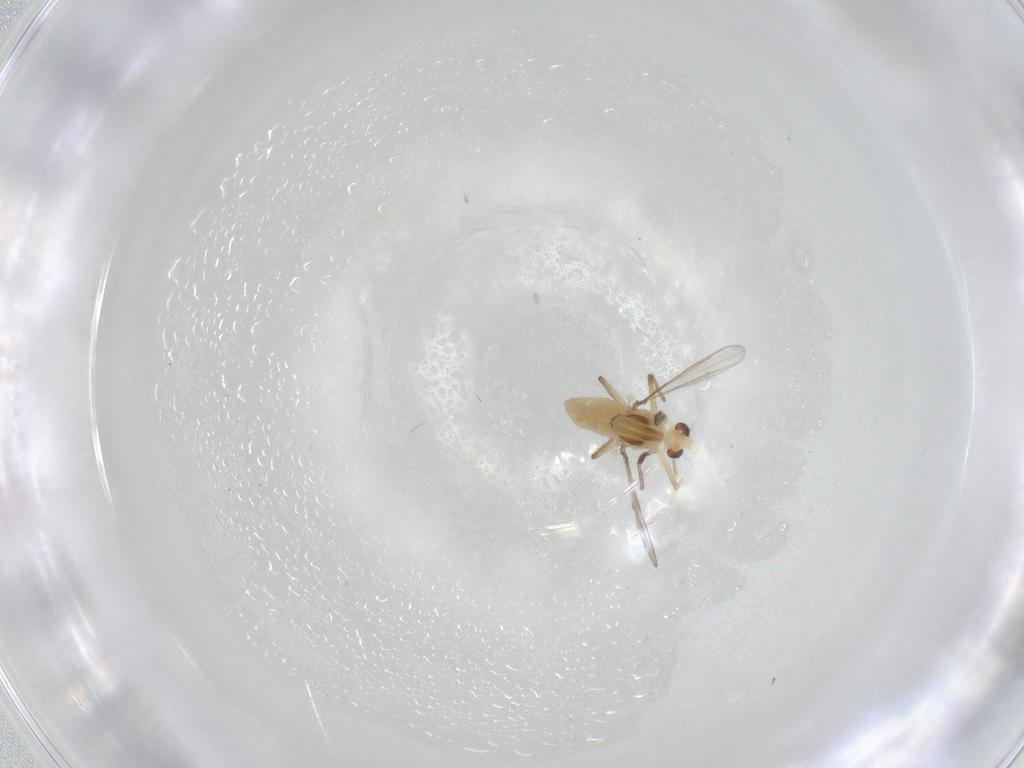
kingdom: Animalia
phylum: Arthropoda
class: Insecta
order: Diptera
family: Chironomidae
